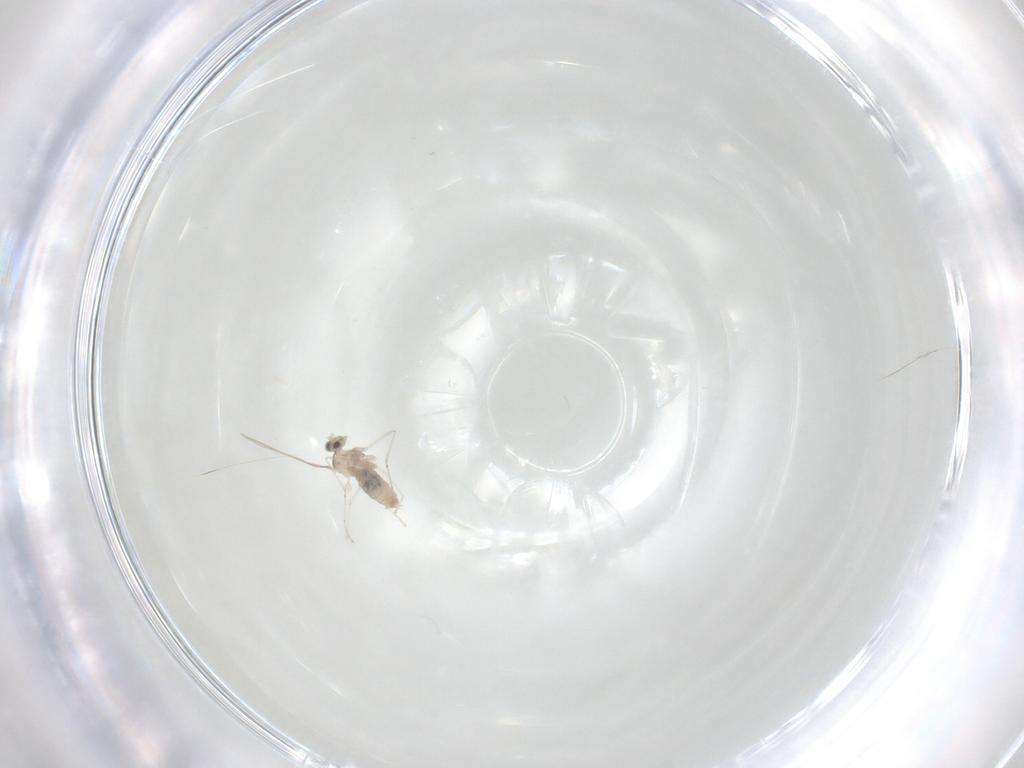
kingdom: Animalia
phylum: Arthropoda
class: Insecta
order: Diptera
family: Cecidomyiidae
